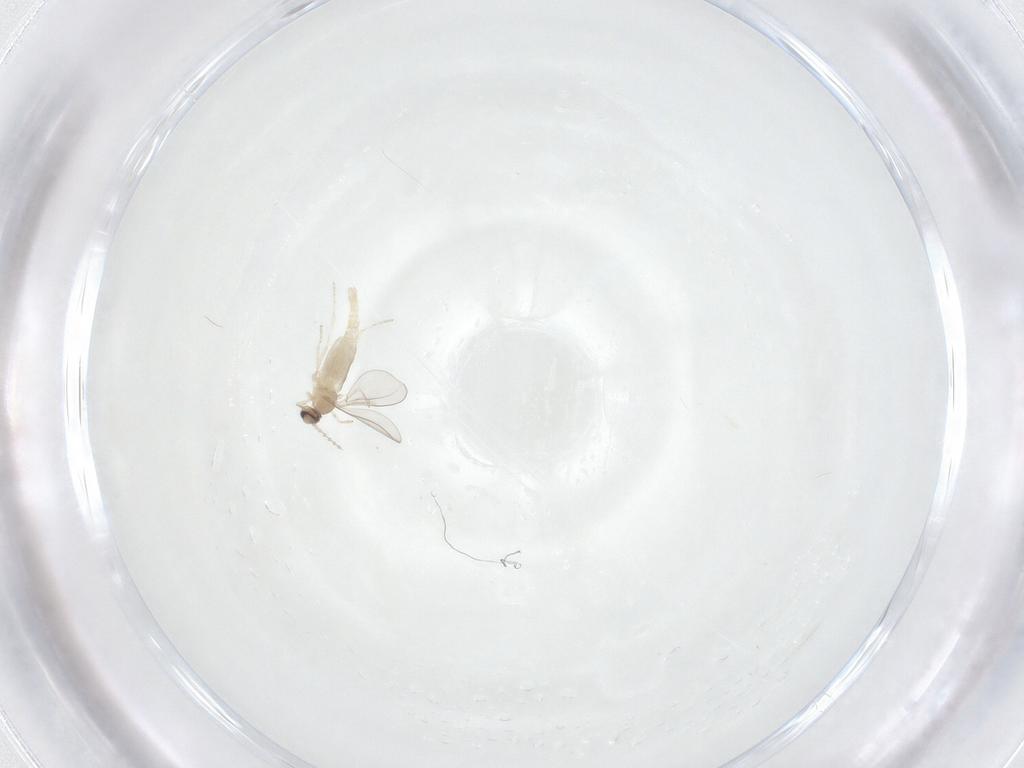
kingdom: Animalia
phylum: Arthropoda
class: Insecta
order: Diptera
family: Cecidomyiidae
